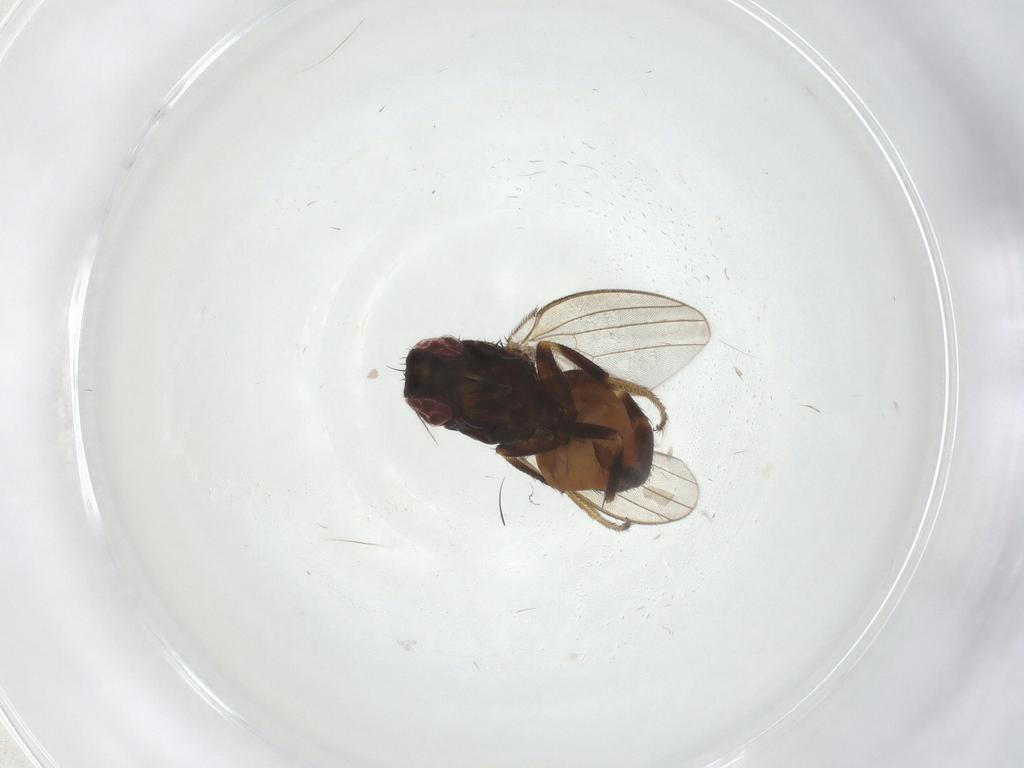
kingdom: Animalia
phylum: Arthropoda
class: Insecta
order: Diptera
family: Milichiidae
